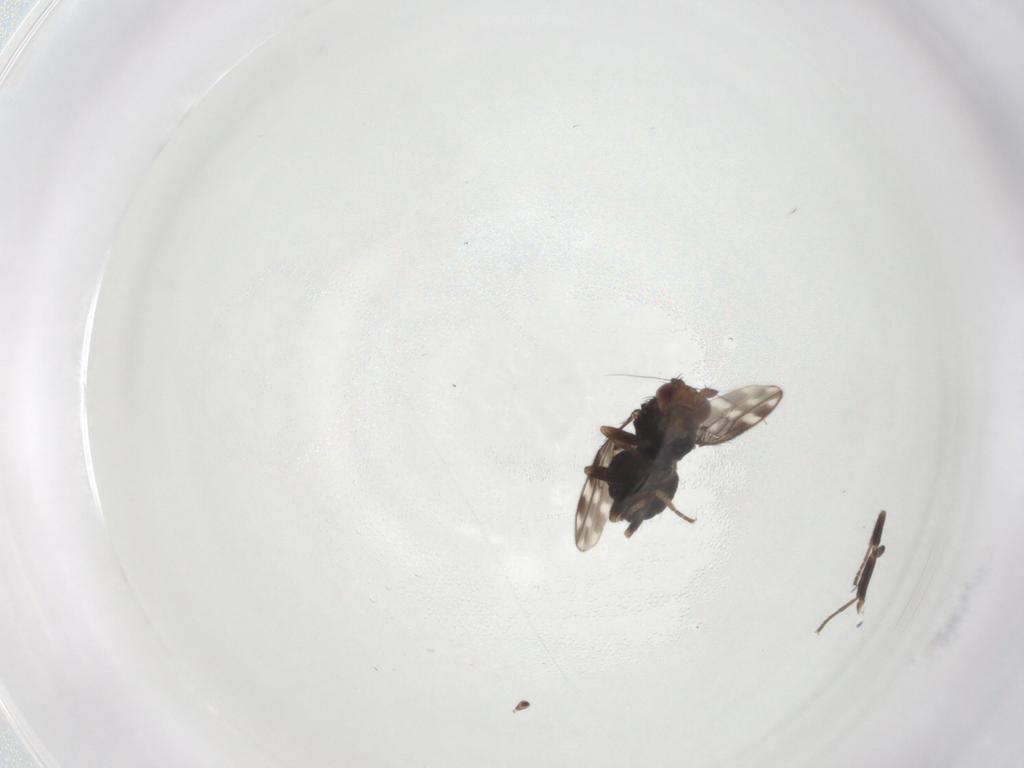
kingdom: Animalia
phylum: Arthropoda
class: Insecta
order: Diptera
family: Sphaeroceridae
